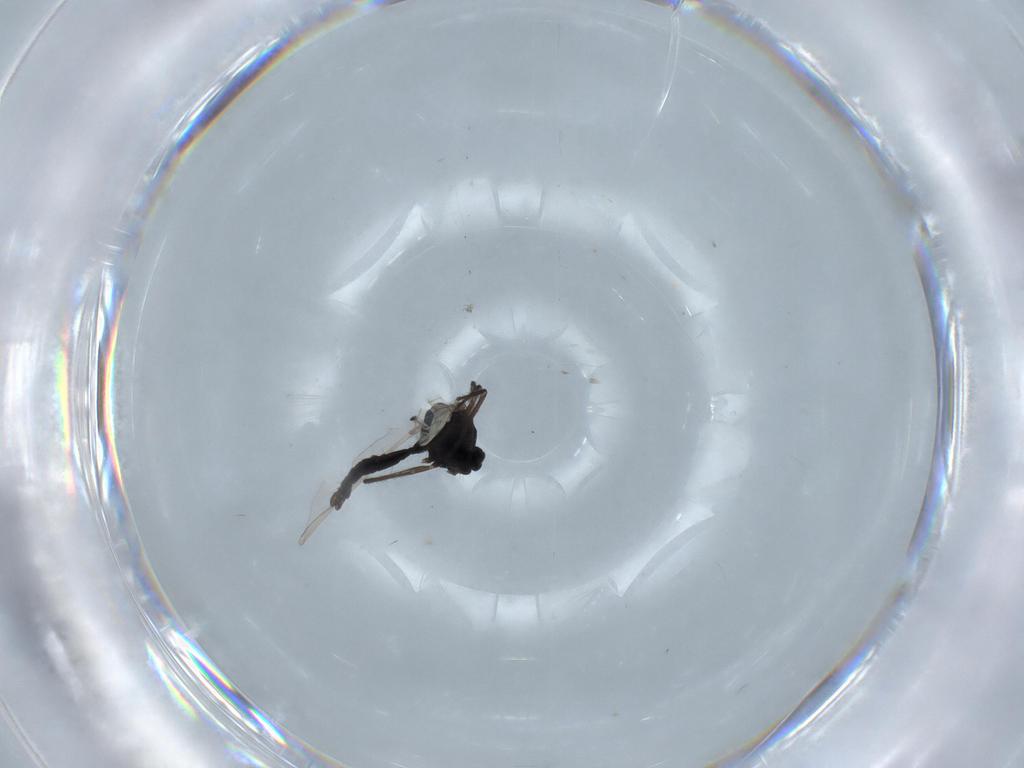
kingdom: Animalia
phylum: Arthropoda
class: Insecta
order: Diptera
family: Chironomidae
